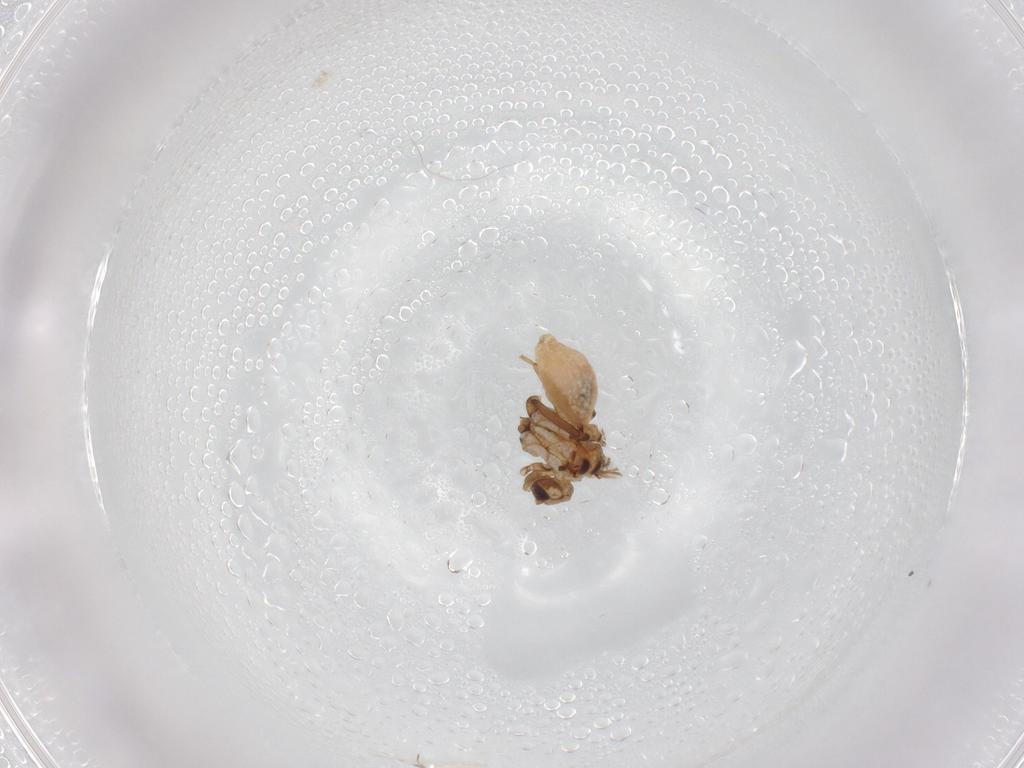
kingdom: Animalia
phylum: Arthropoda
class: Insecta
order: Neuroptera
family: Coniopterygidae
